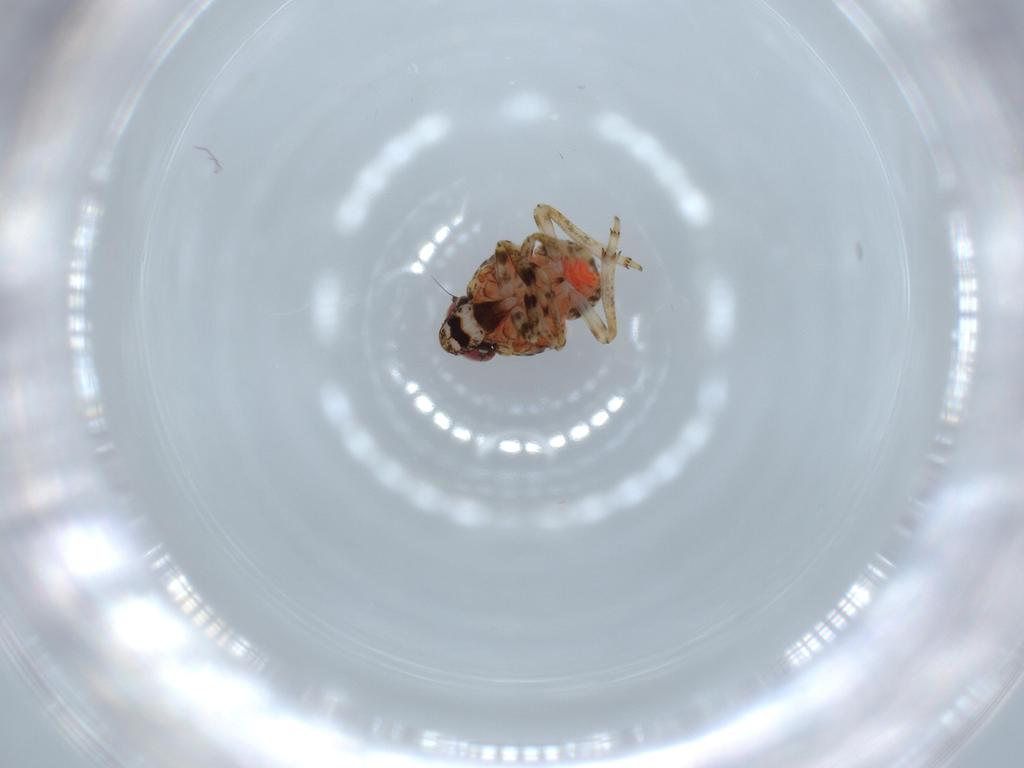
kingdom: Animalia
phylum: Arthropoda
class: Insecta
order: Hemiptera
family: Issidae
